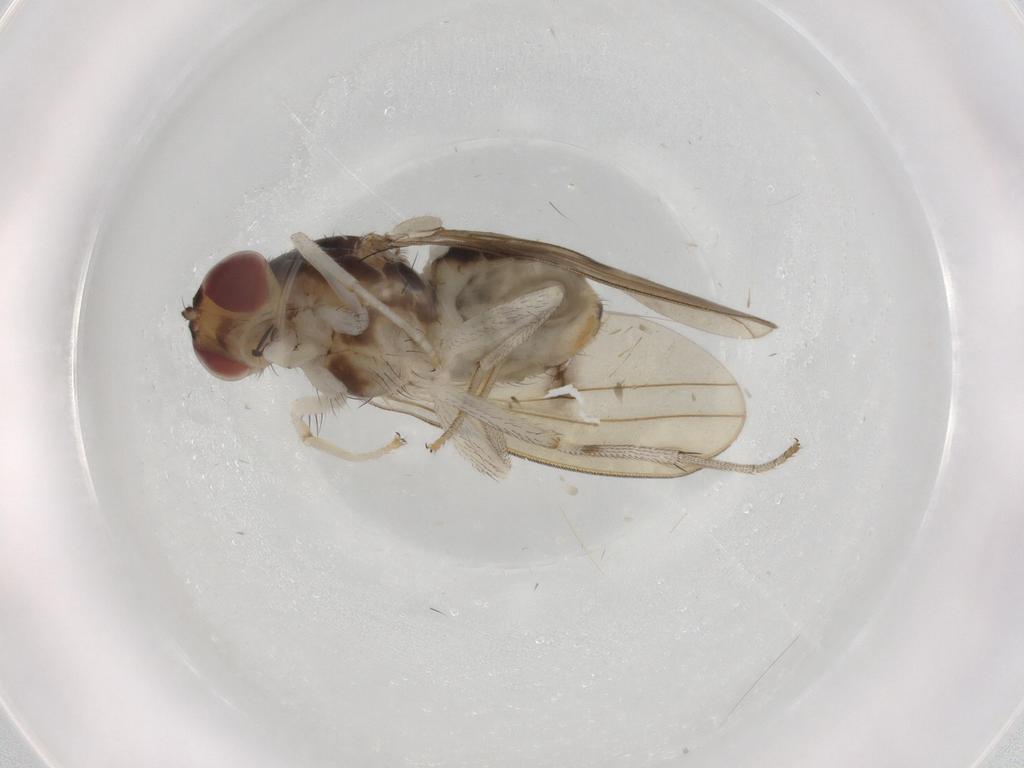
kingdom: Animalia
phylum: Arthropoda
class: Insecta
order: Diptera
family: Lauxaniidae
